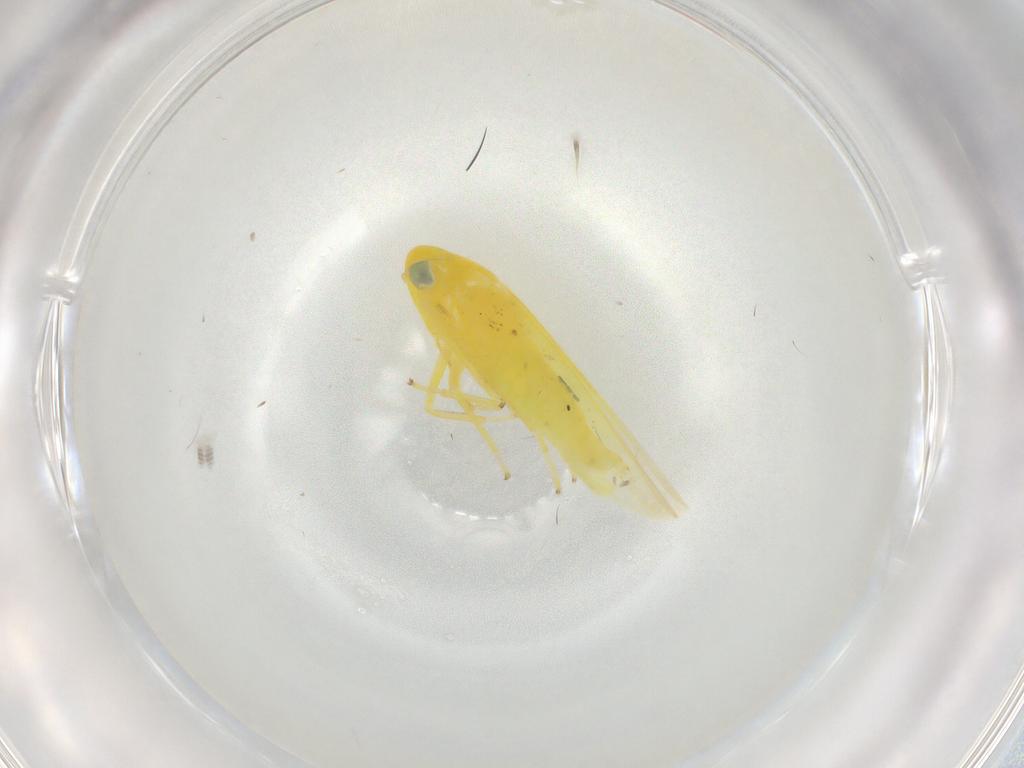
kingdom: Animalia
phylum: Arthropoda
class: Insecta
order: Hemiptera
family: Cicadellidae
